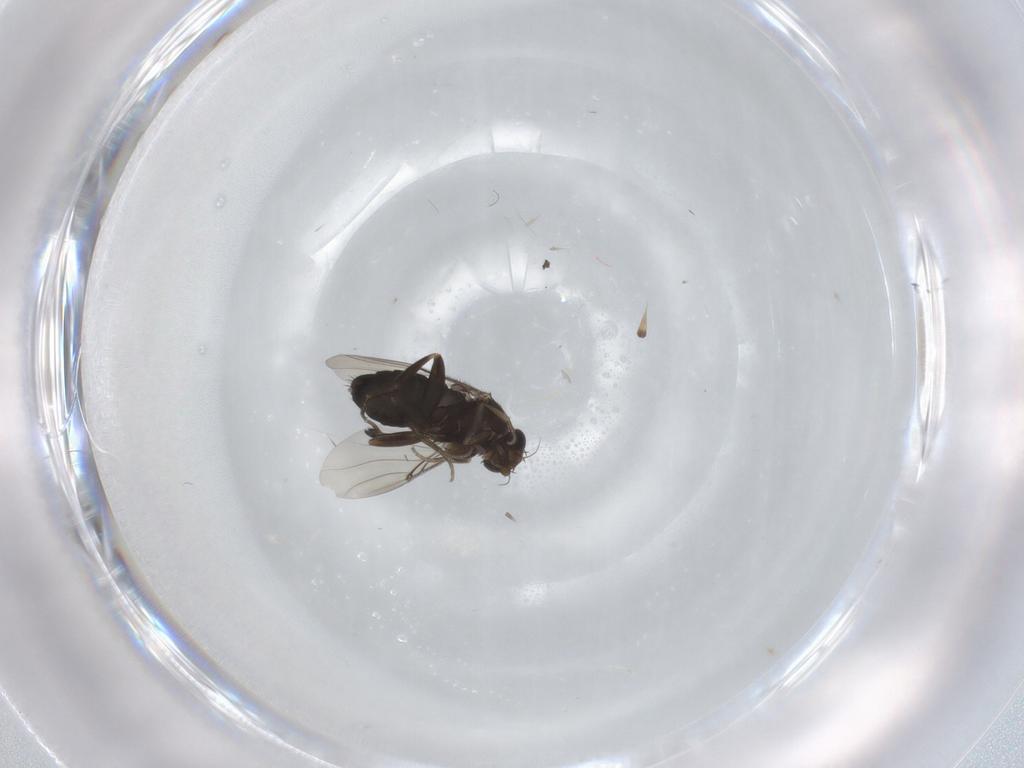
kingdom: Animalia
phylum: Arthropoda
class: Insecta
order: Diptera
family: Phoridae
